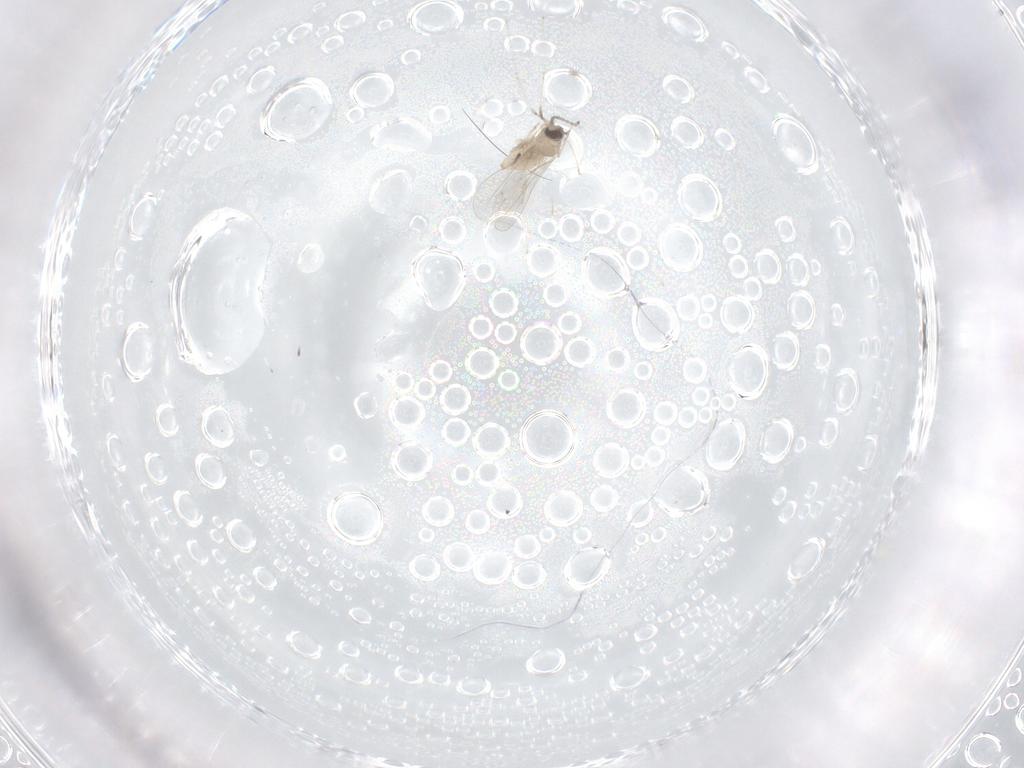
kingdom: Animalia
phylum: Arthropoda
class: Insecta
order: Diptera
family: Cecidomyiidae
